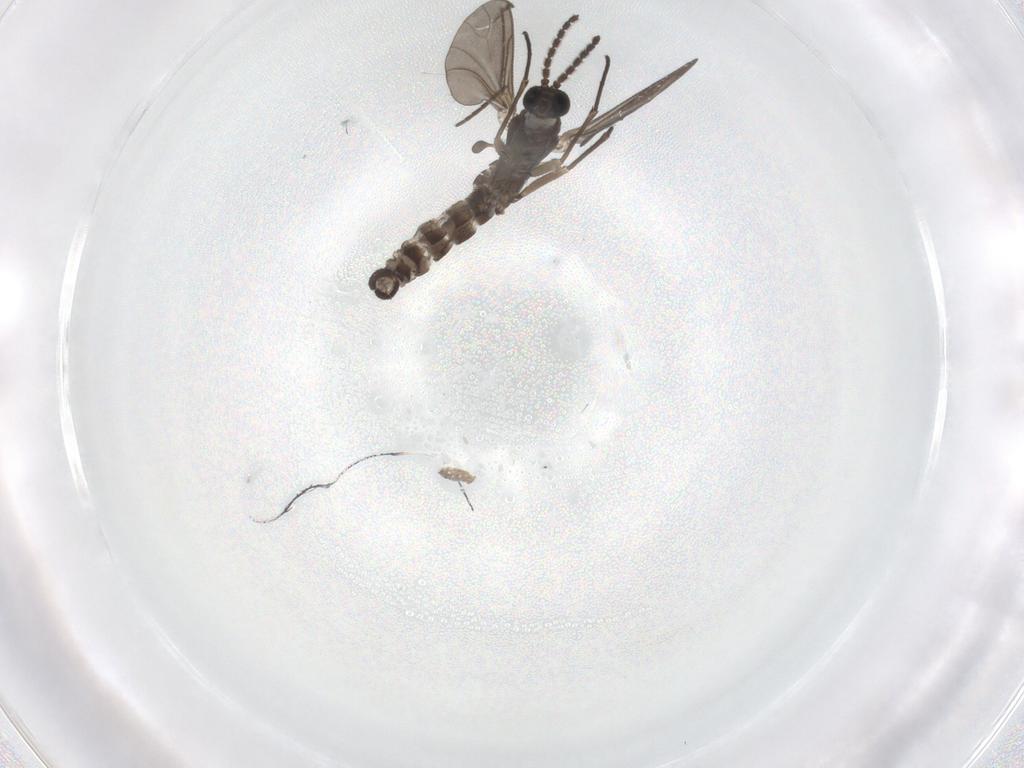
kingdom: Animalia
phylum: Arthropoda
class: Insecta
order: Diptera
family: Sciaridae
